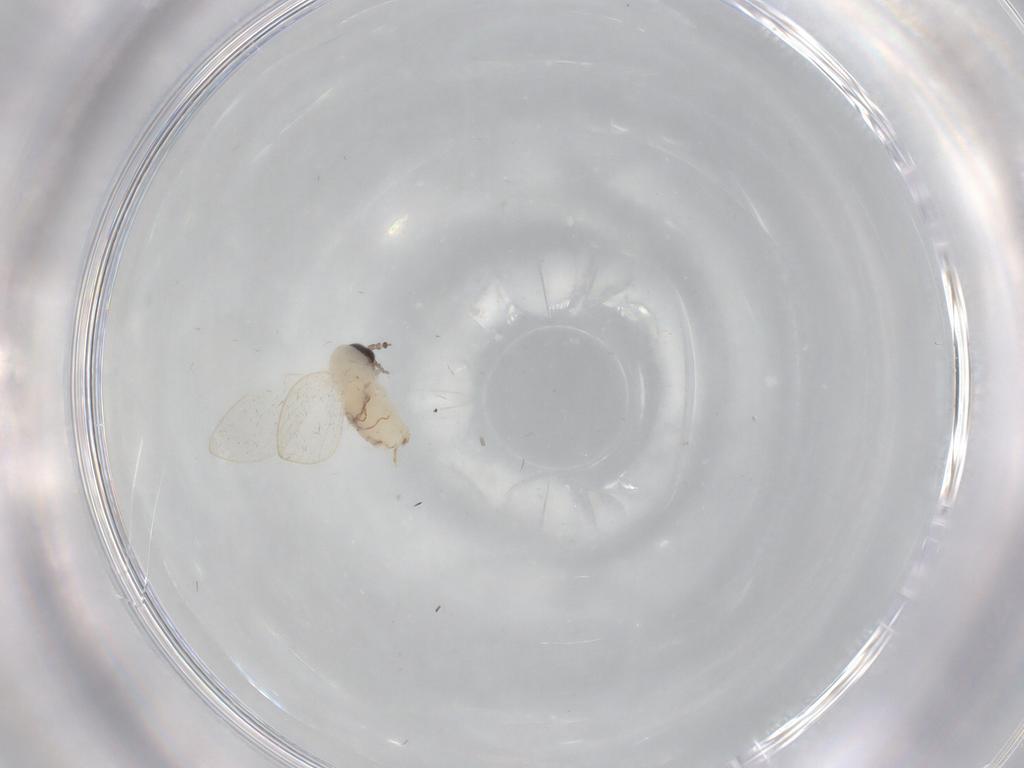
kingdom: Animalia
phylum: Arthropoda
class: Insecta
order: Diptera
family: Psychodidae
